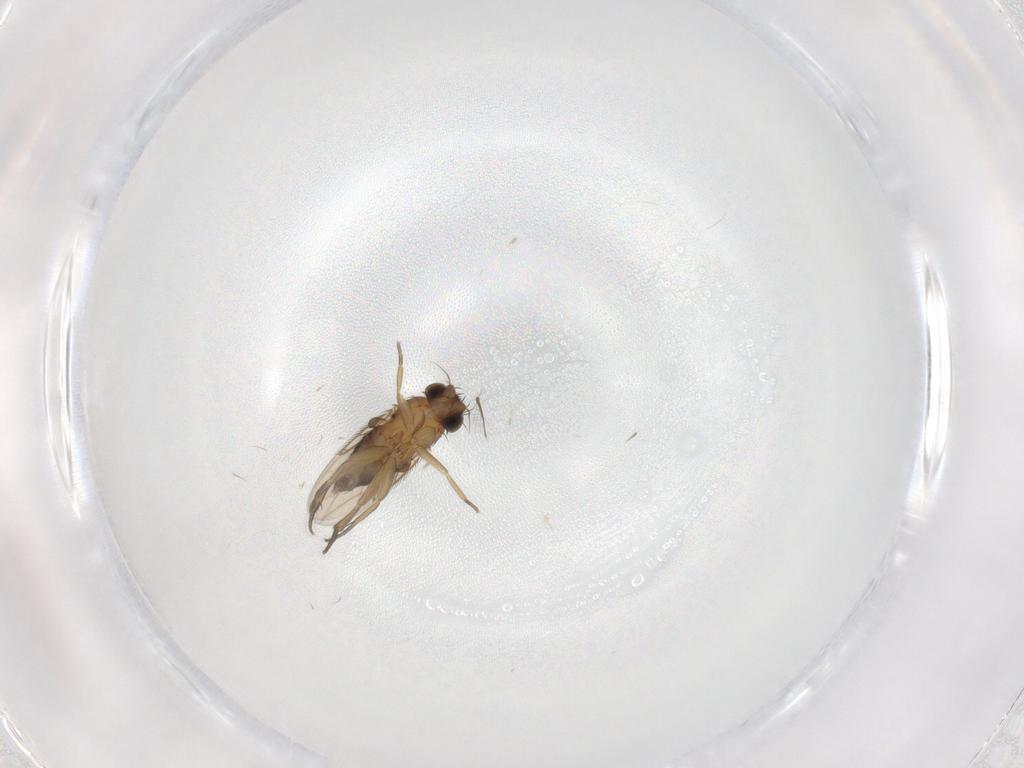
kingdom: Animalia
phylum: Arthropoda
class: Insecta
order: Diptera
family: Phoridae
